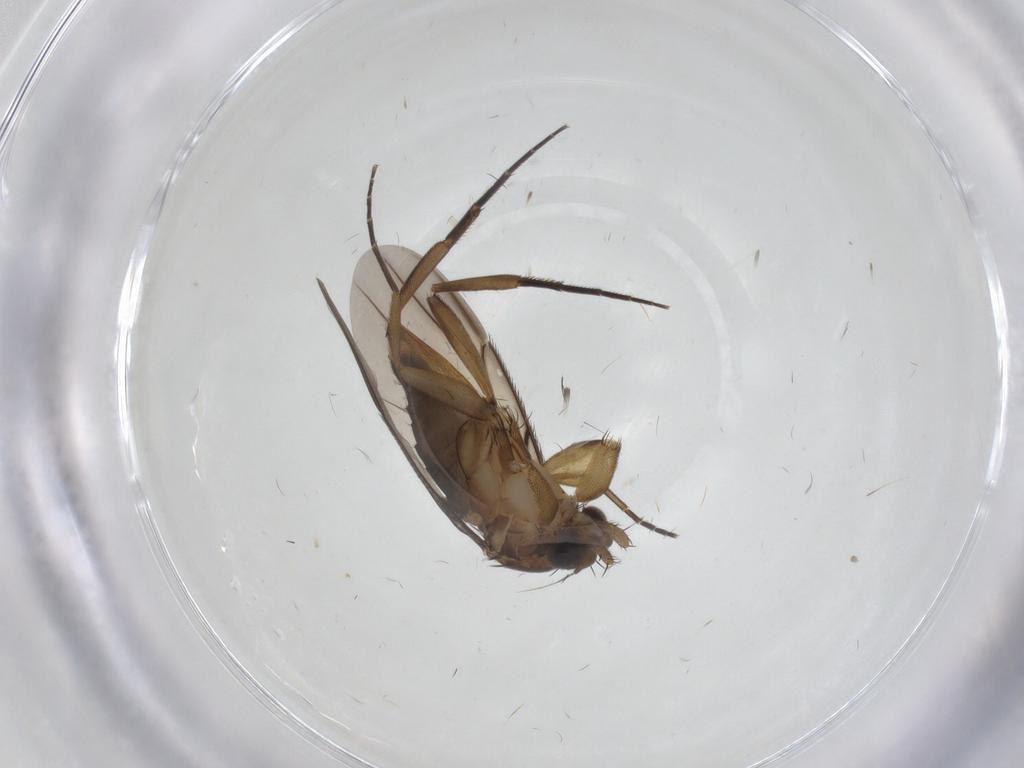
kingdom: Animalia
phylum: Arthropoda
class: Insecta
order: Diptera
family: Phoridae
